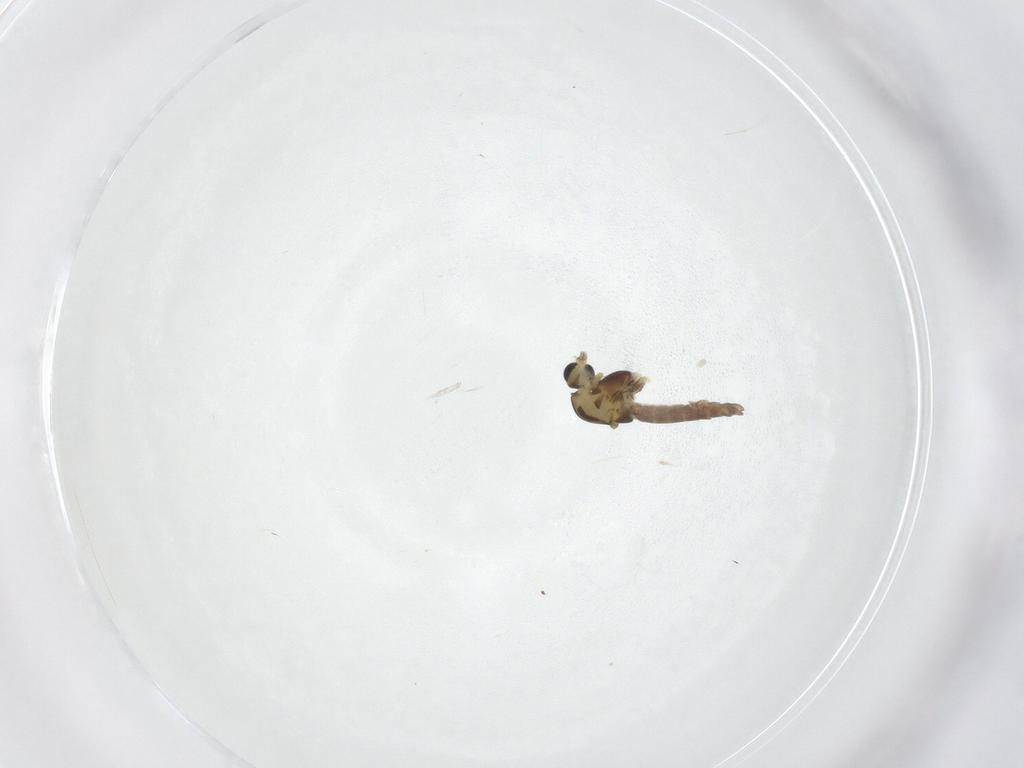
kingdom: Animalia
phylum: Arthropoda
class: Insecta
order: Diptera
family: Chironomidae
